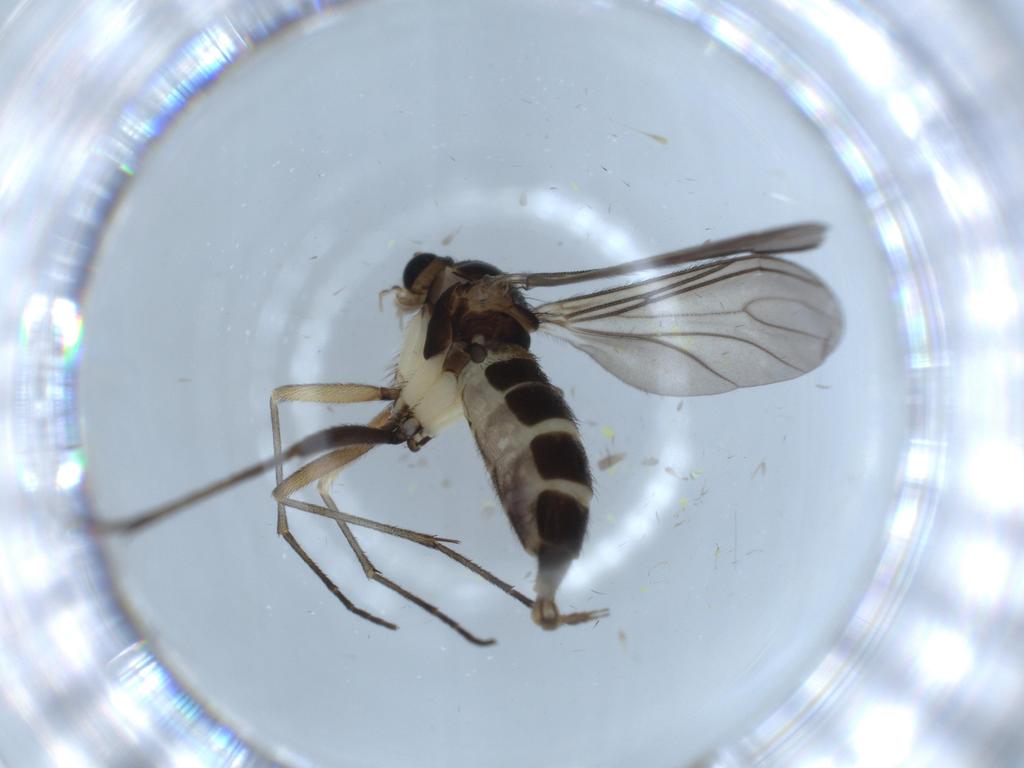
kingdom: Animalia
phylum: Arthropoda
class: Insecta
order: Diptera
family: Sciaridae
